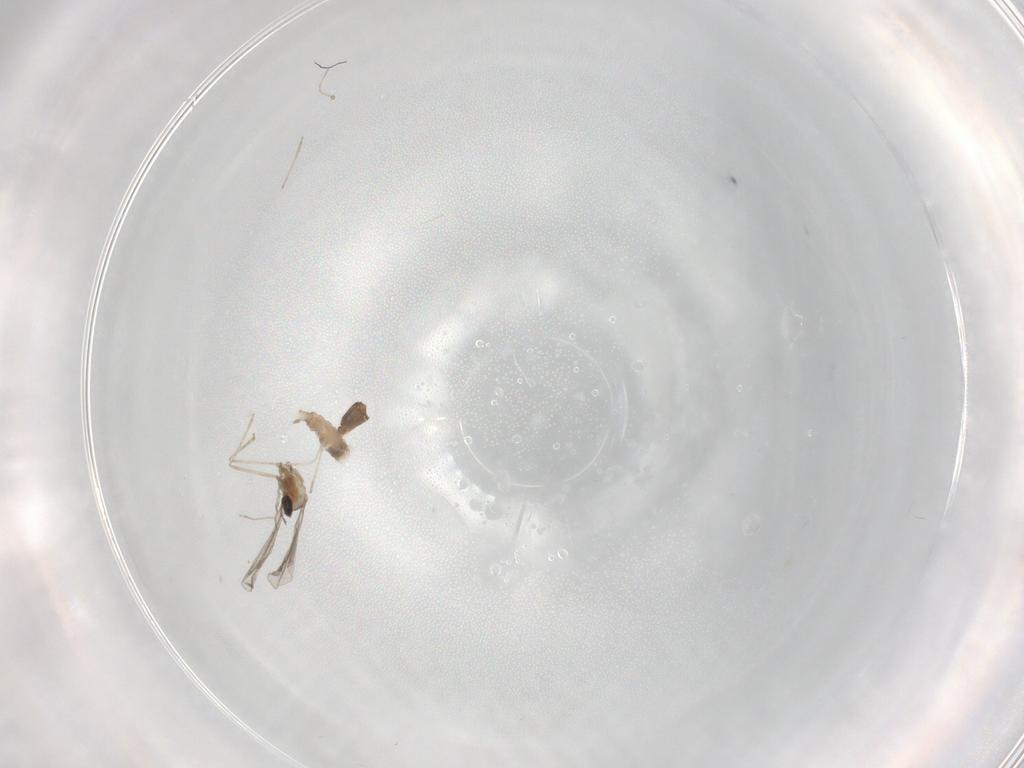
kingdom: Animalia
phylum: Arthropoda
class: Insecta
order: Diptera
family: Cecidomyiidae
